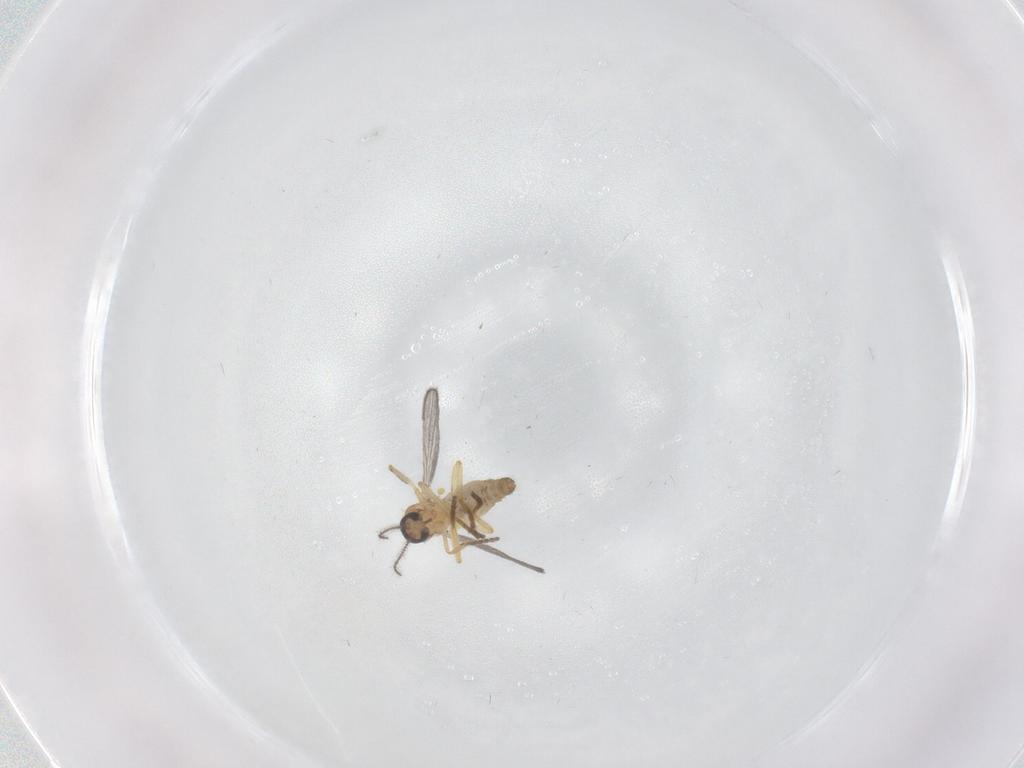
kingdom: Animalia
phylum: Arthropoda
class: Insecta
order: Diptera
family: Ceratopogonidae
